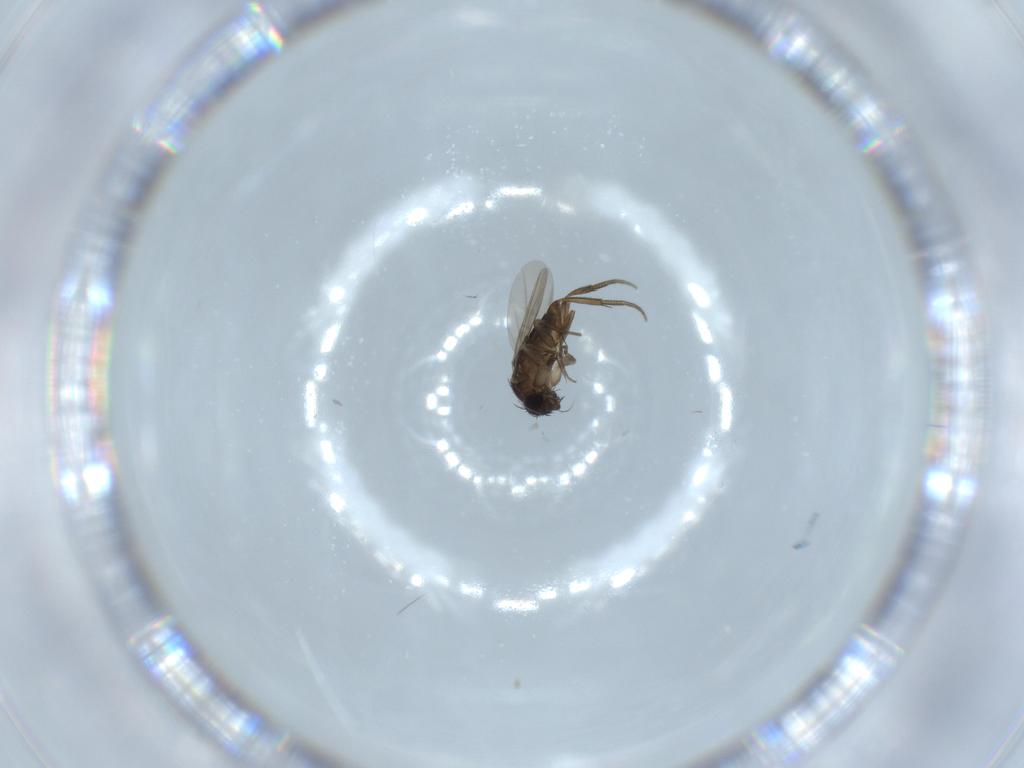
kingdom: Animalia
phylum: Arthropoda
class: Insecta
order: Diptera
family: Phoridae
